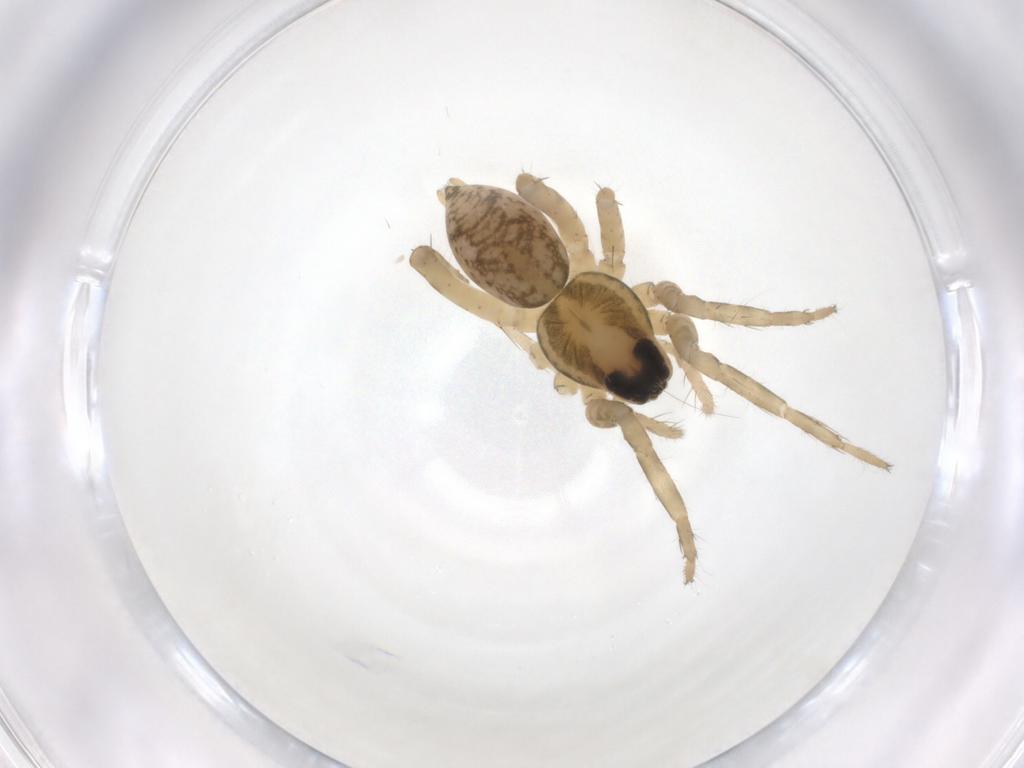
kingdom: Animalia
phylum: Arthropoda
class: Arachnida
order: Araneae
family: Lycosidae
